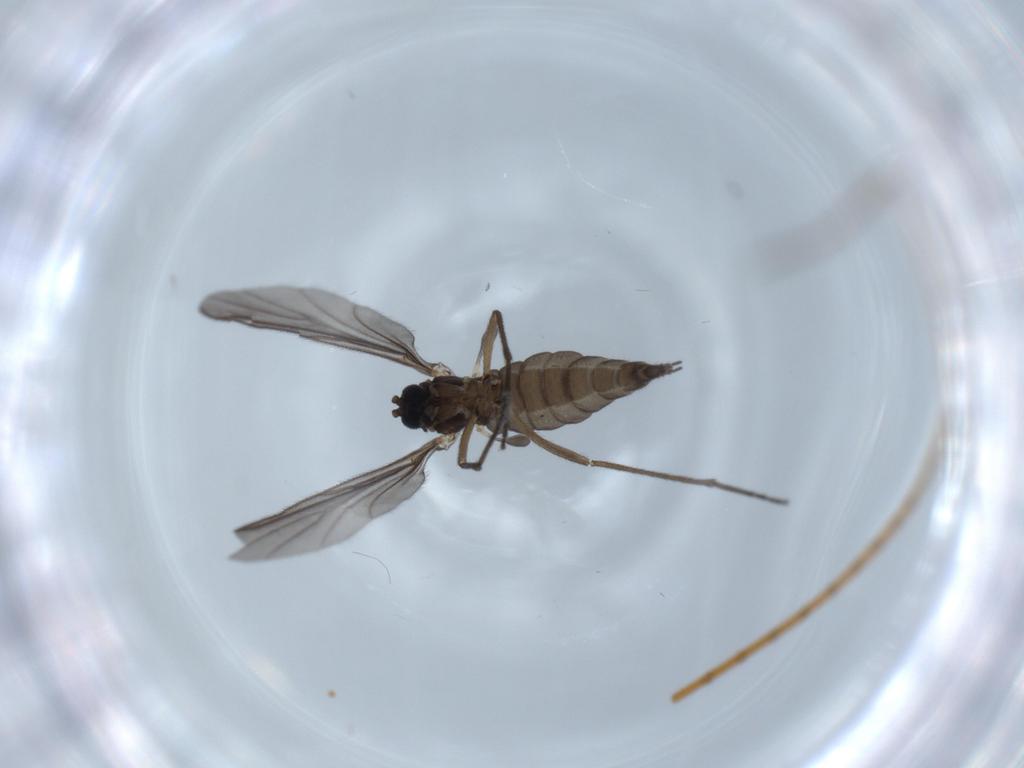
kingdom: Animalia
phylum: Arthropoda
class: Insecta
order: Diptera
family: Sciaridae
